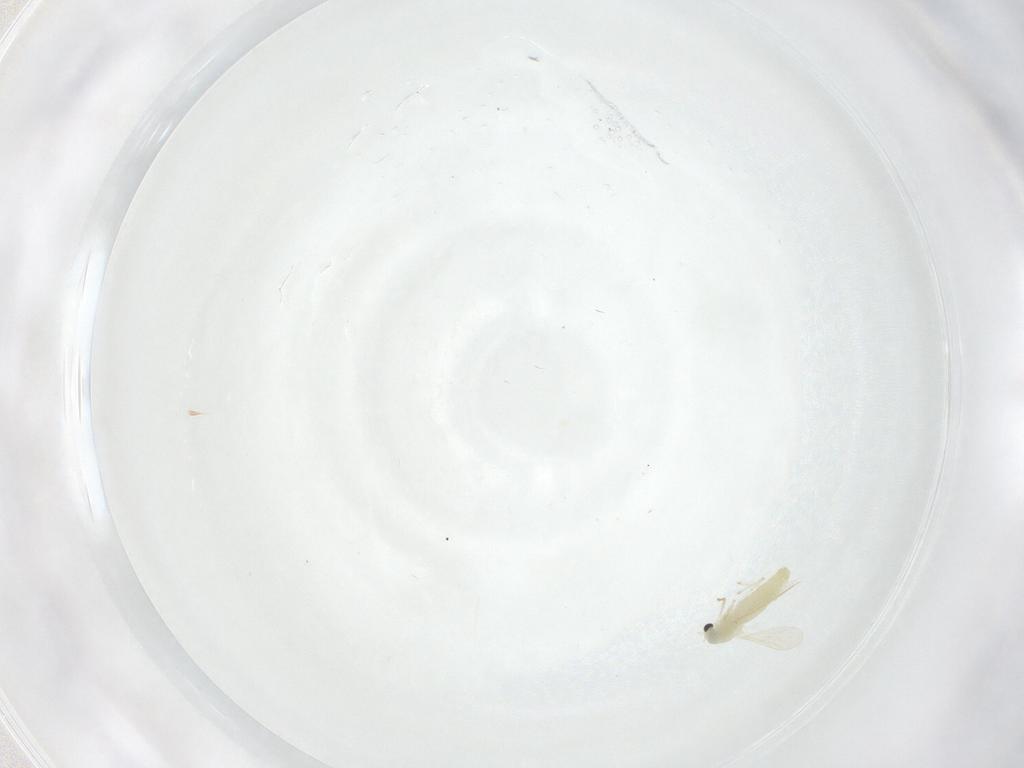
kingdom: Animalia
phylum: Arthropoda
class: Insecta
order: Diptera
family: Chironomidae
